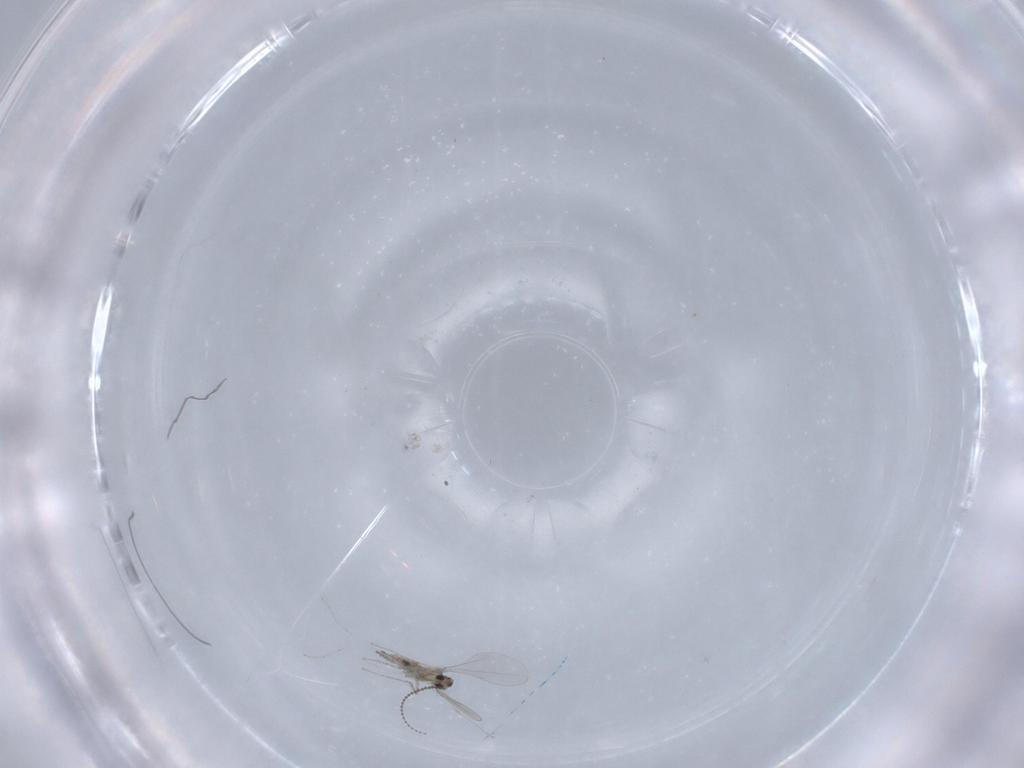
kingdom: Animalia
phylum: Arthropoda
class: Insecta
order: Diptera
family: Cecidomyiidae
